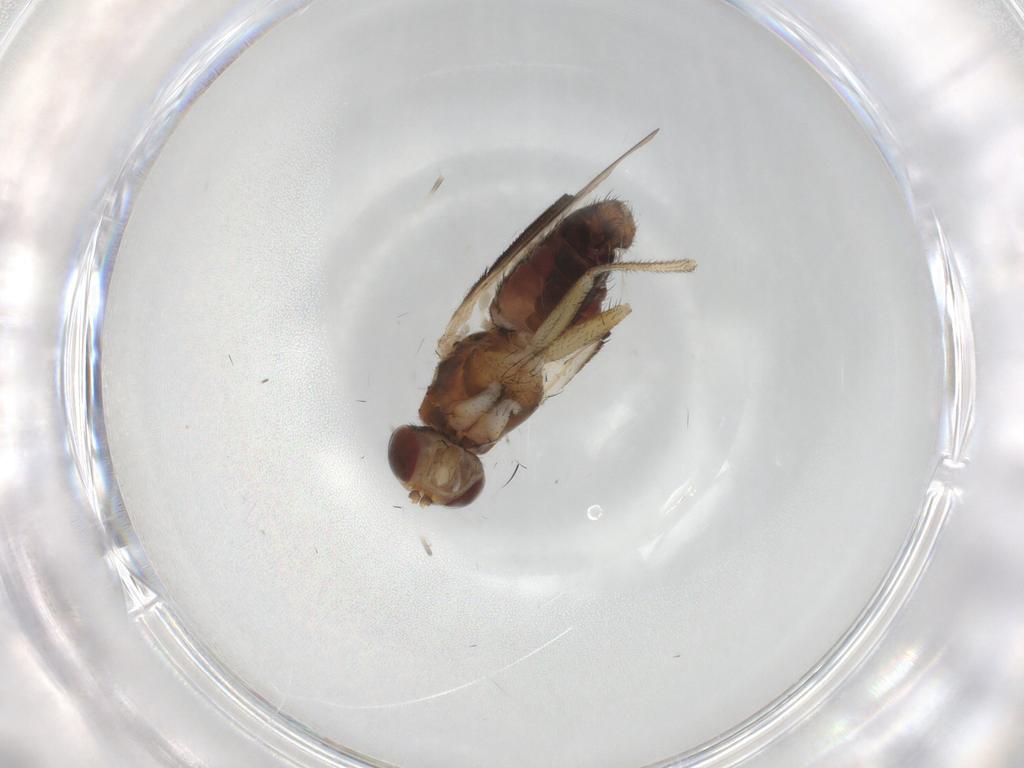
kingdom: Animalia
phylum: Arthropoda
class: Insecta
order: Diptera
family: Heleomyzidae
